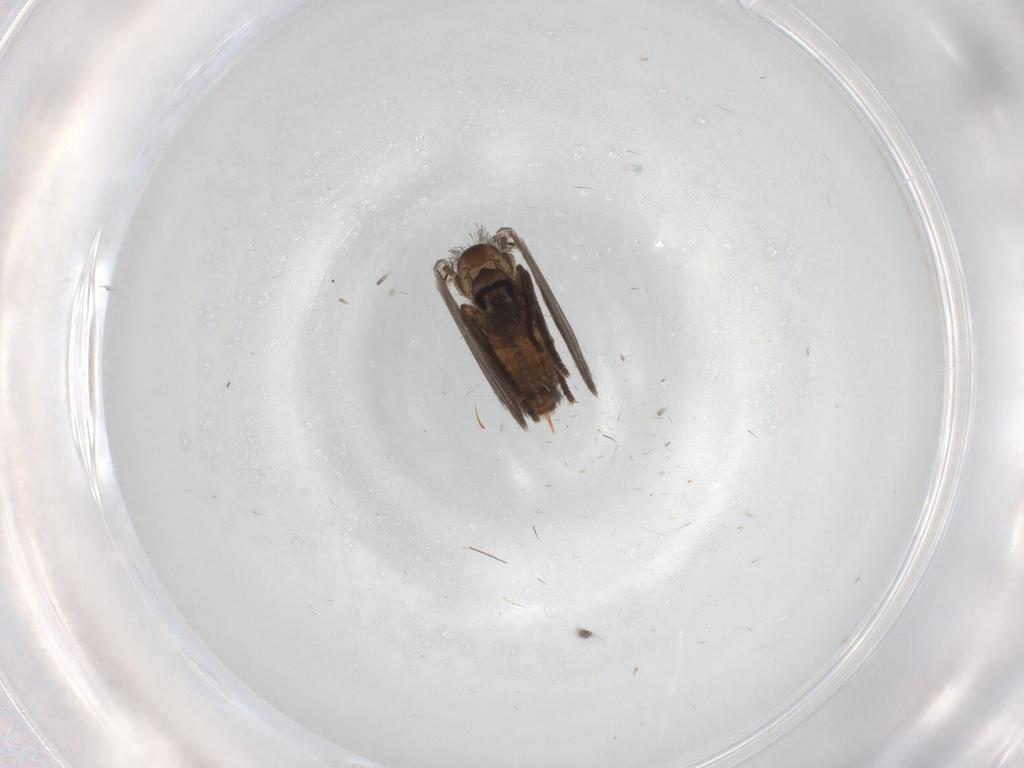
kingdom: Animalia
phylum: Arthropoda
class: Insecta
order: Diptera
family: Psychodidae
